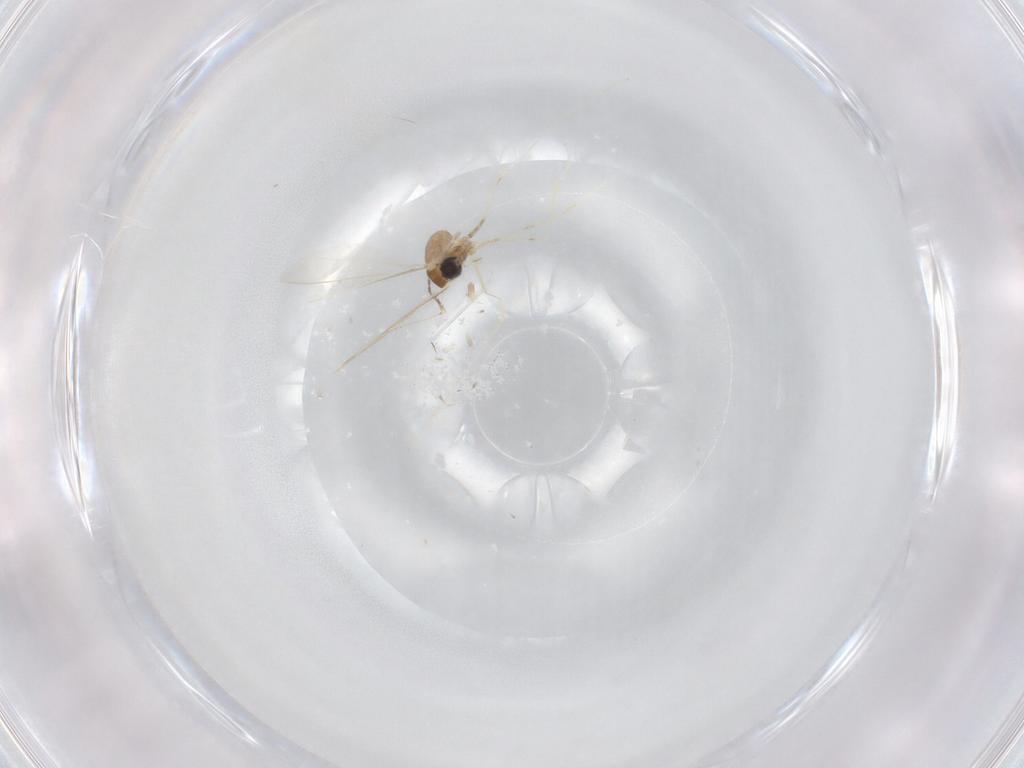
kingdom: Animalia
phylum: Arthropoda
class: Insecta
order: Diptera
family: Cecidomyiidae
